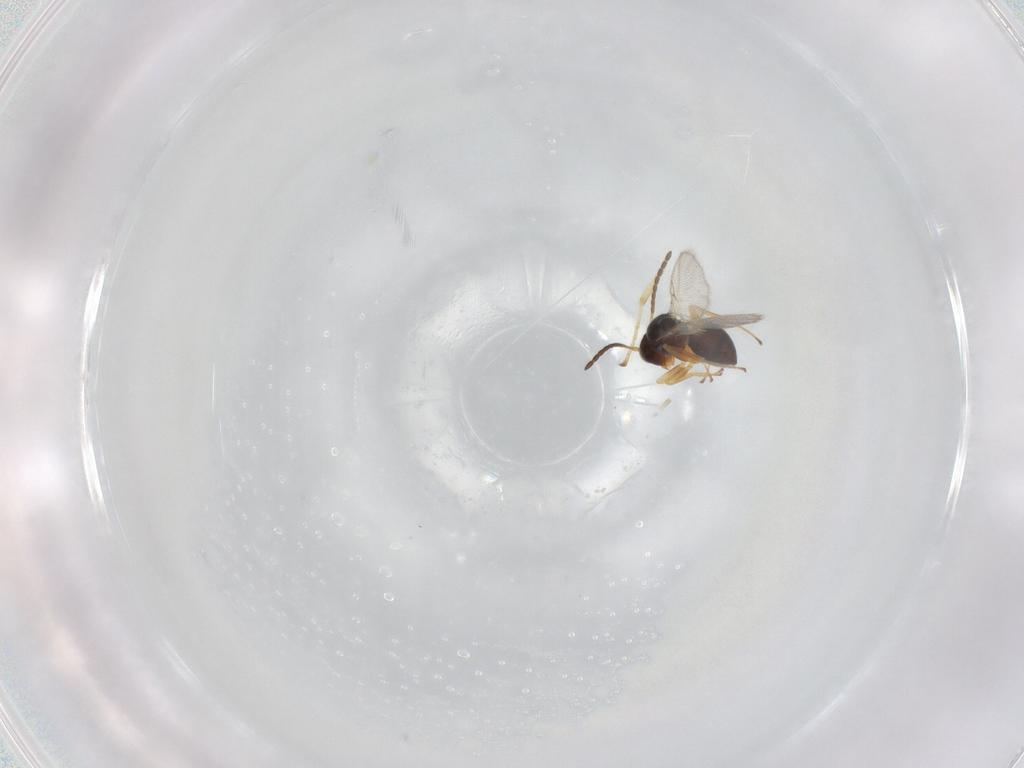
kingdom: Animalia
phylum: Arthropoda
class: Insecta
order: Hymenoptera
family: Figitidae
